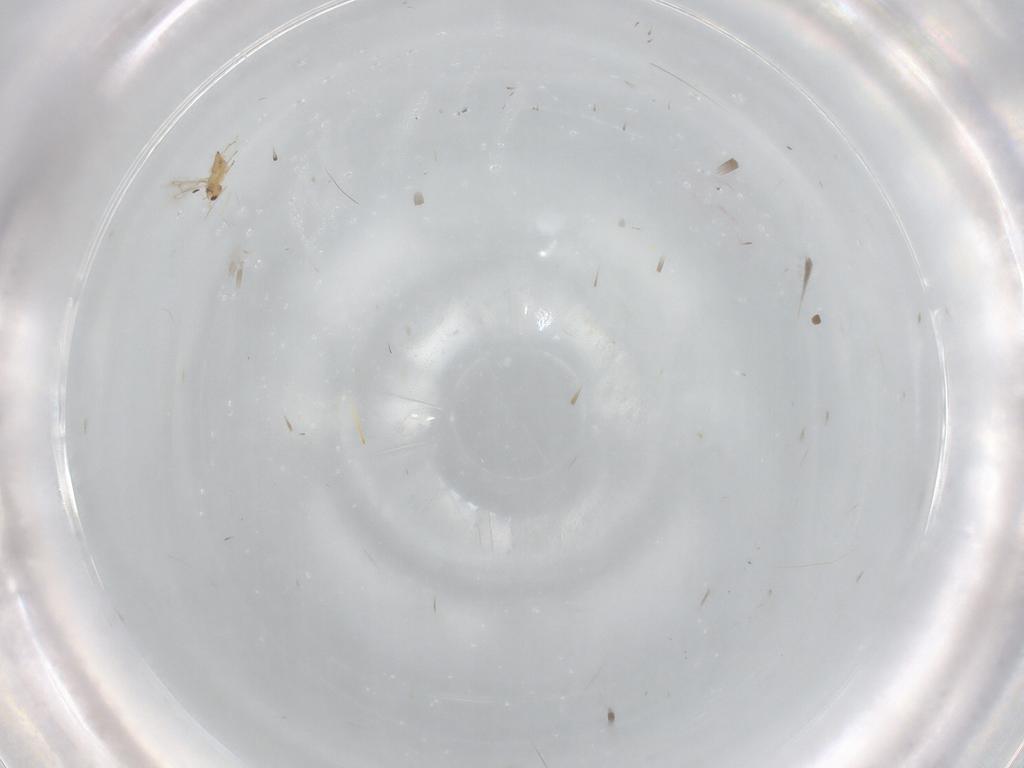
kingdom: Animalia
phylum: Arthropoda
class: Insecta
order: Hymenoptera
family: Mymaridae
